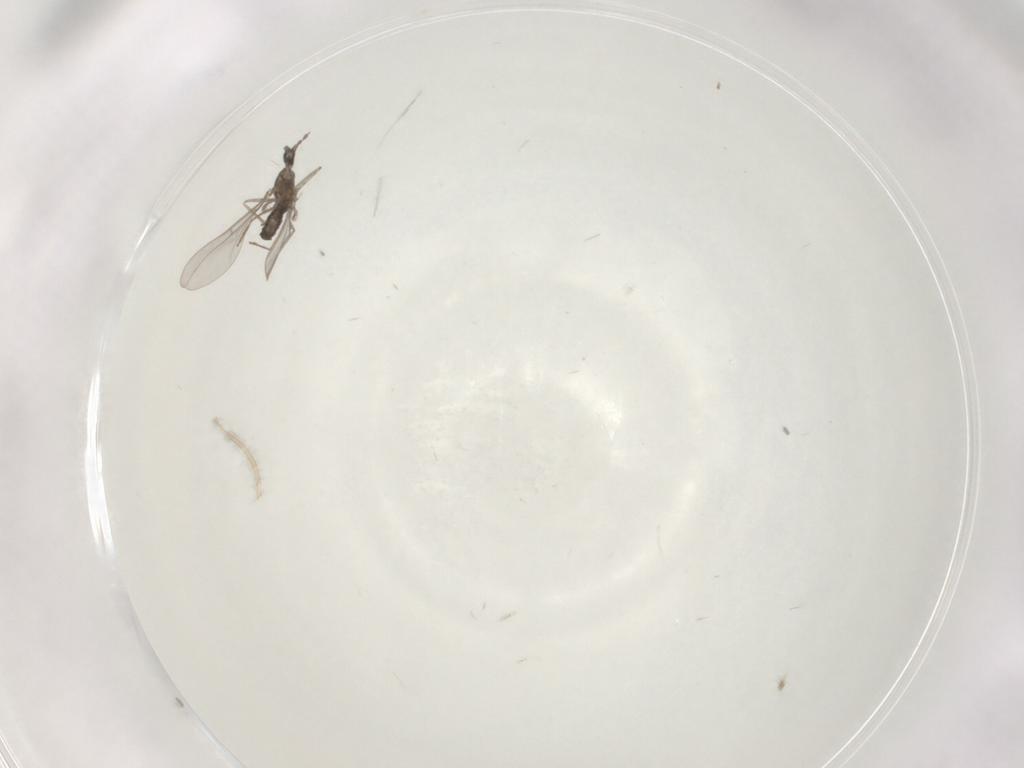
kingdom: Animalia
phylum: Arthropoda
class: Insecta
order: Diptera
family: Chironomidae
